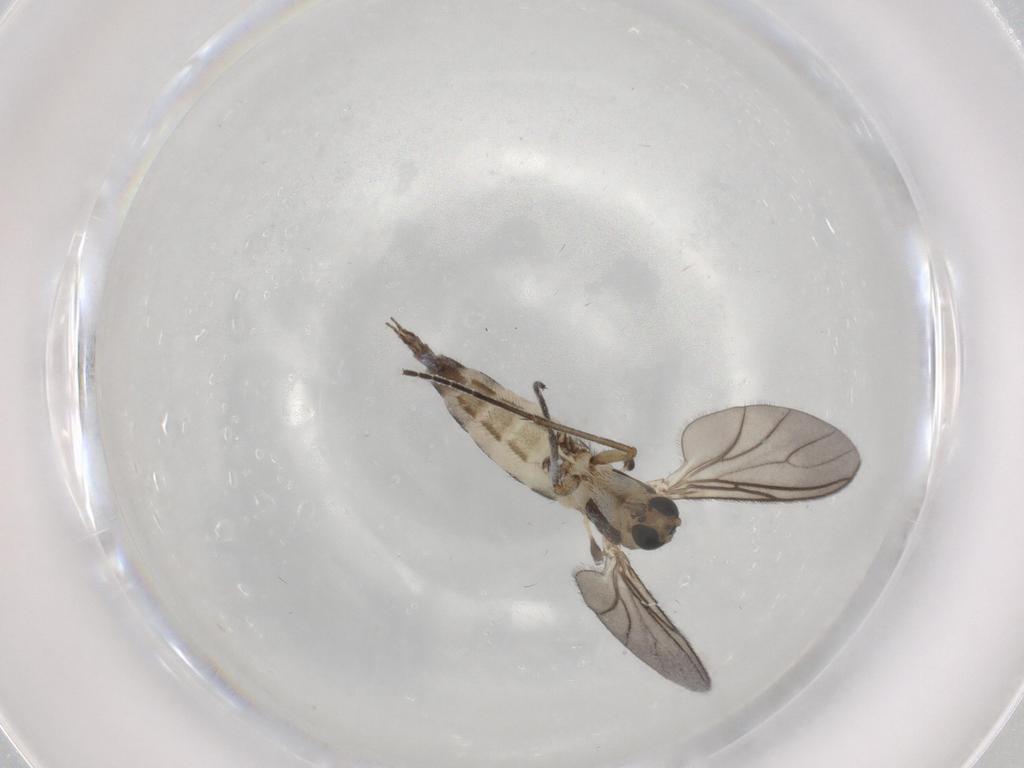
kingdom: Animalia
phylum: Arthropoda
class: Insecta
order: Diptera
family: Sciaridae
